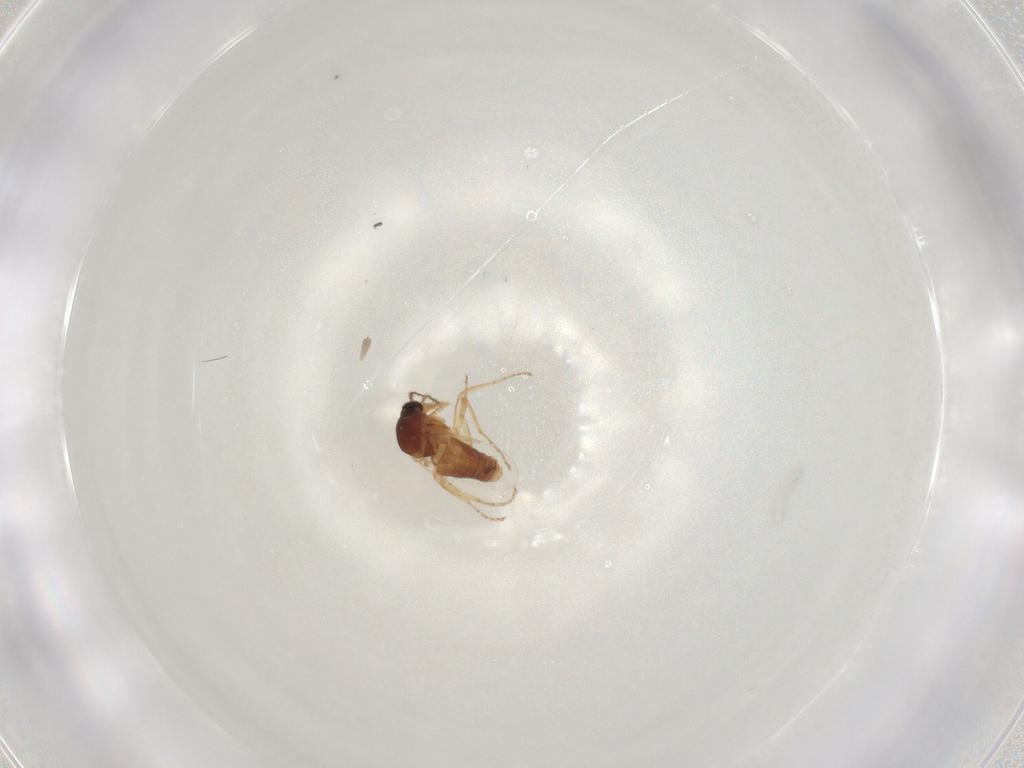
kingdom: Animalia
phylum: Arthropoda
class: Insecta
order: Diptera
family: Ceratopogonidae
